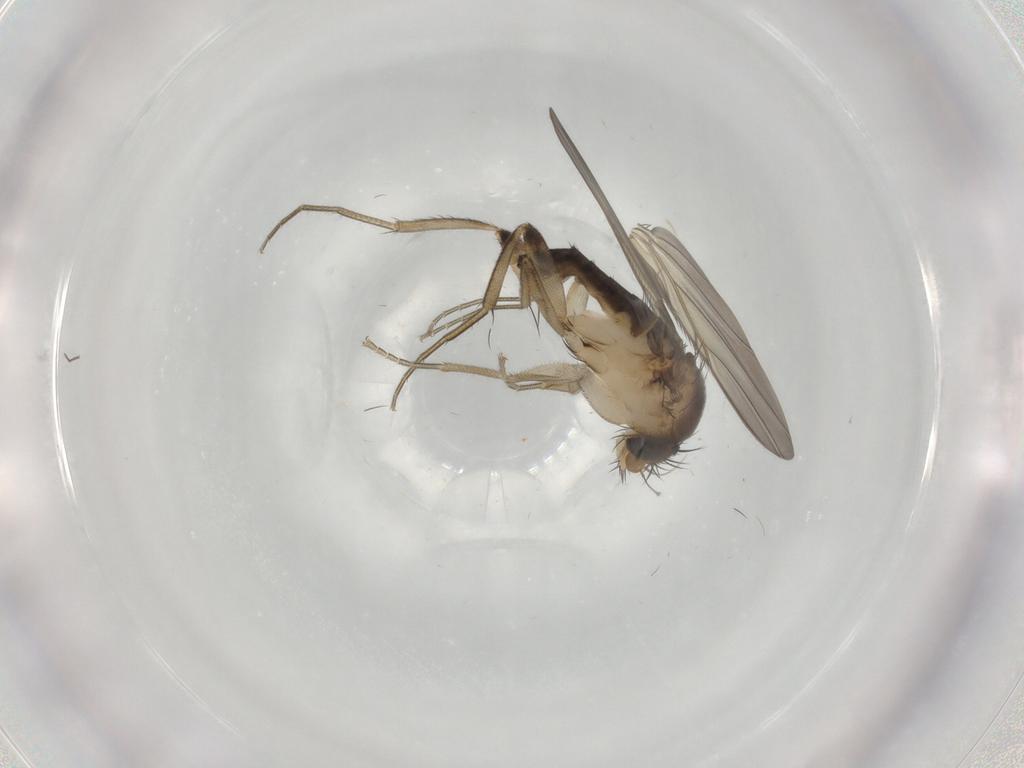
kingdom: Animalia
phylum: Arthropoda
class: Insecta
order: Diptera
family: Phoridae
